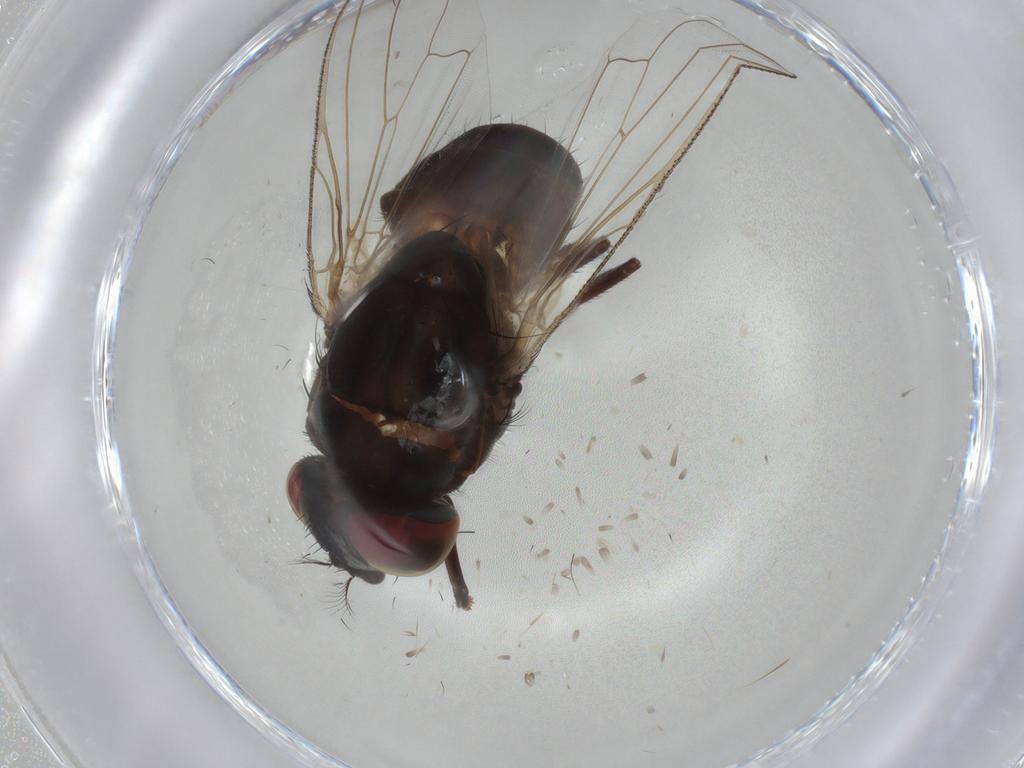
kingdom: Animalia
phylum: Arthropoda
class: Insecta
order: Diptera
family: Muscidae
